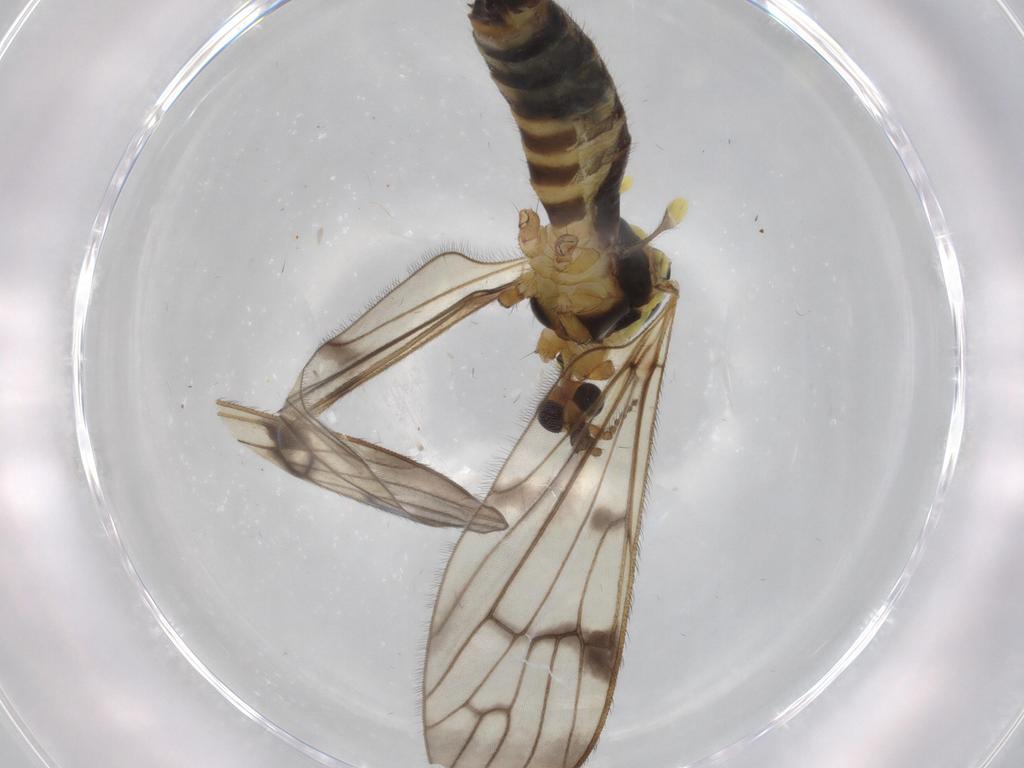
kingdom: Animalia
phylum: Arthropoda
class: Insecta
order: Diptera
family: Limoniidae
